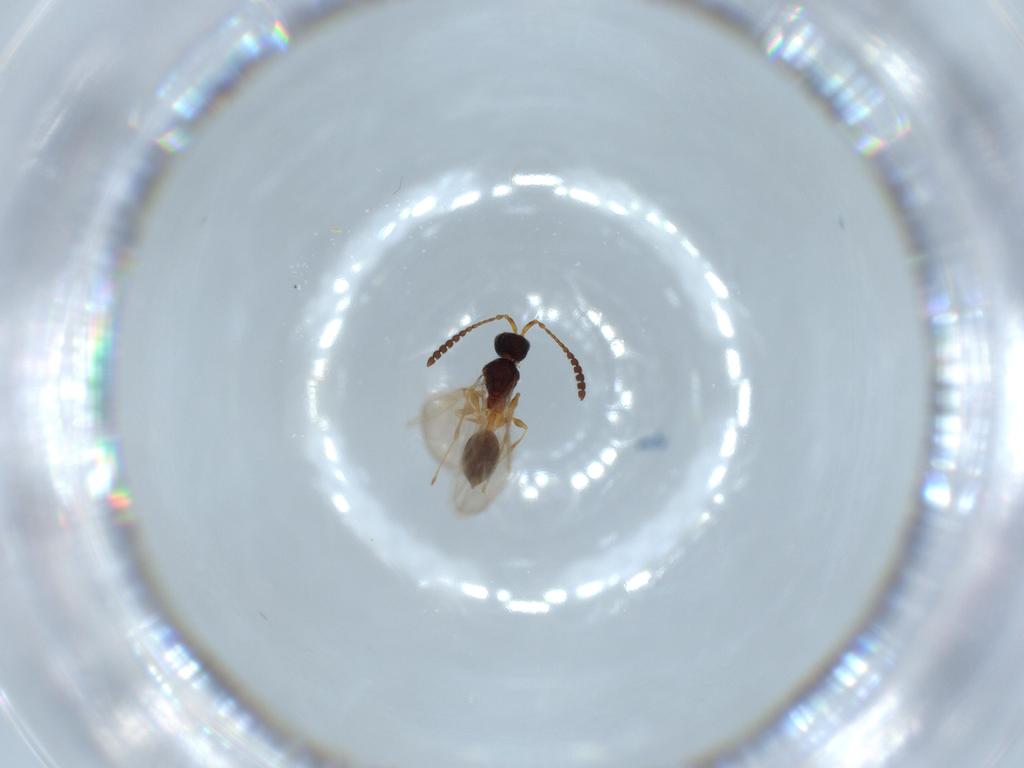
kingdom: Animalia
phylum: Arthropoda
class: Insecta
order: Hymenoptera
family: Diapriidae
